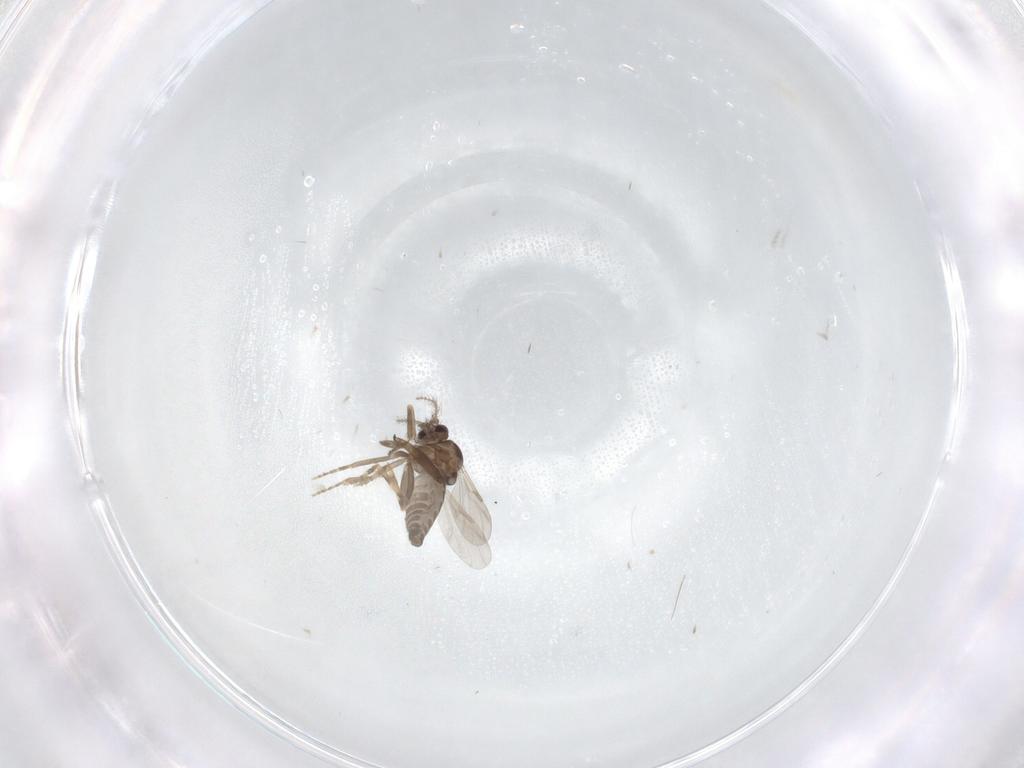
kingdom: Animalia
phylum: Arthropoda
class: Insecta
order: Diptera
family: Ceratopogonidae
